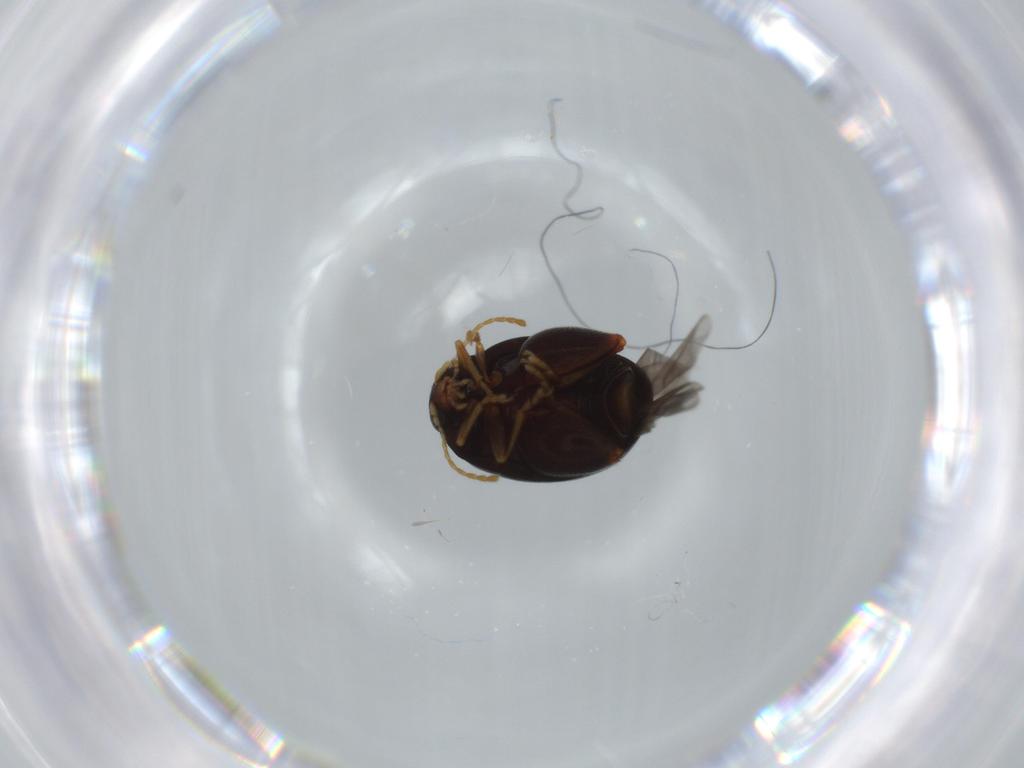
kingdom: Animalia
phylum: Arthropoda
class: Insecta
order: Coleoptera
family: Chrysomelidae
